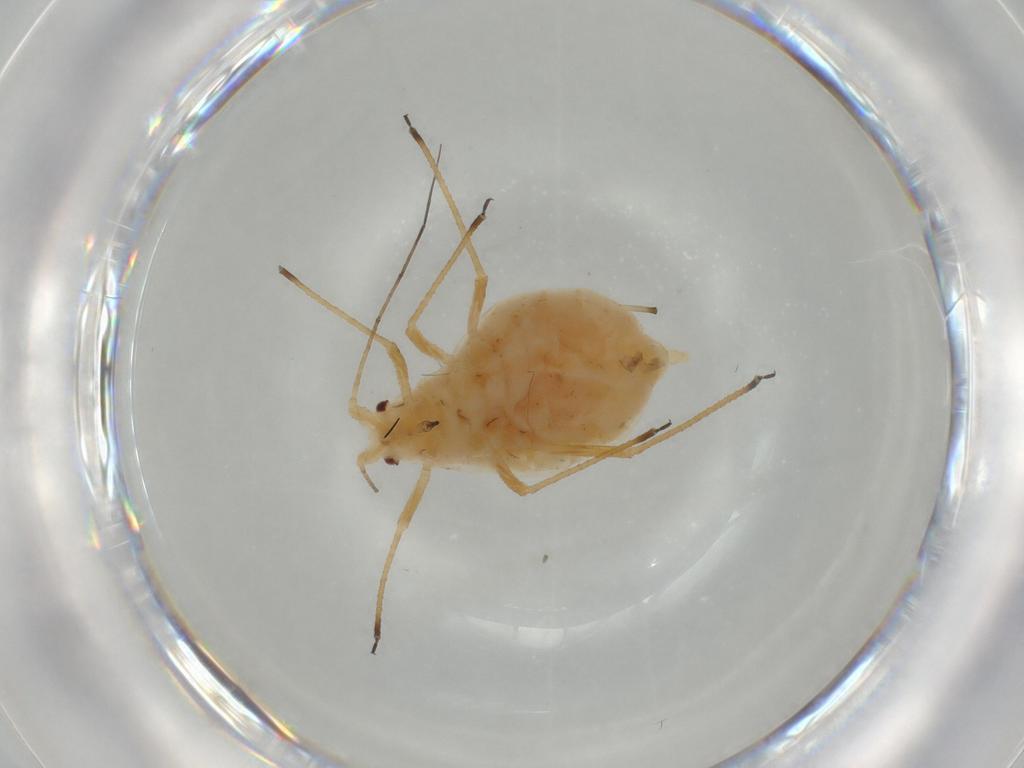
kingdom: Animalia
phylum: Arthropoda
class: Insecta
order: Hemiptera
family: Aphididae
